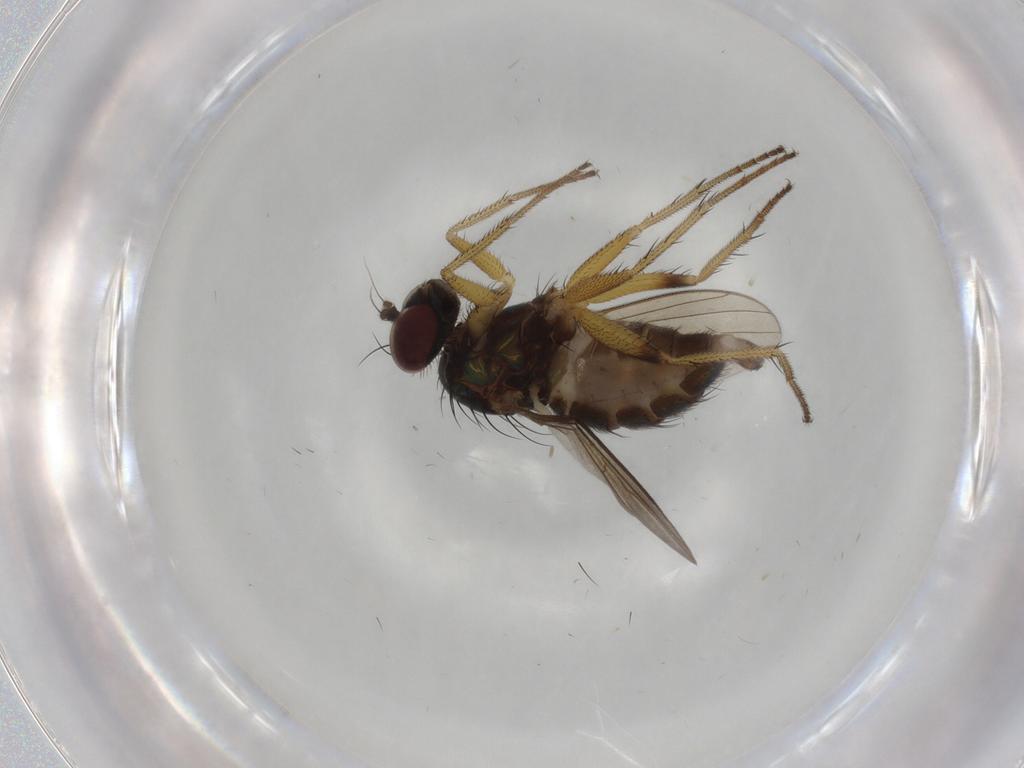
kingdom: Animalia
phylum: Arthropoda
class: Insecta
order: Diptera
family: Dolichopodidae
